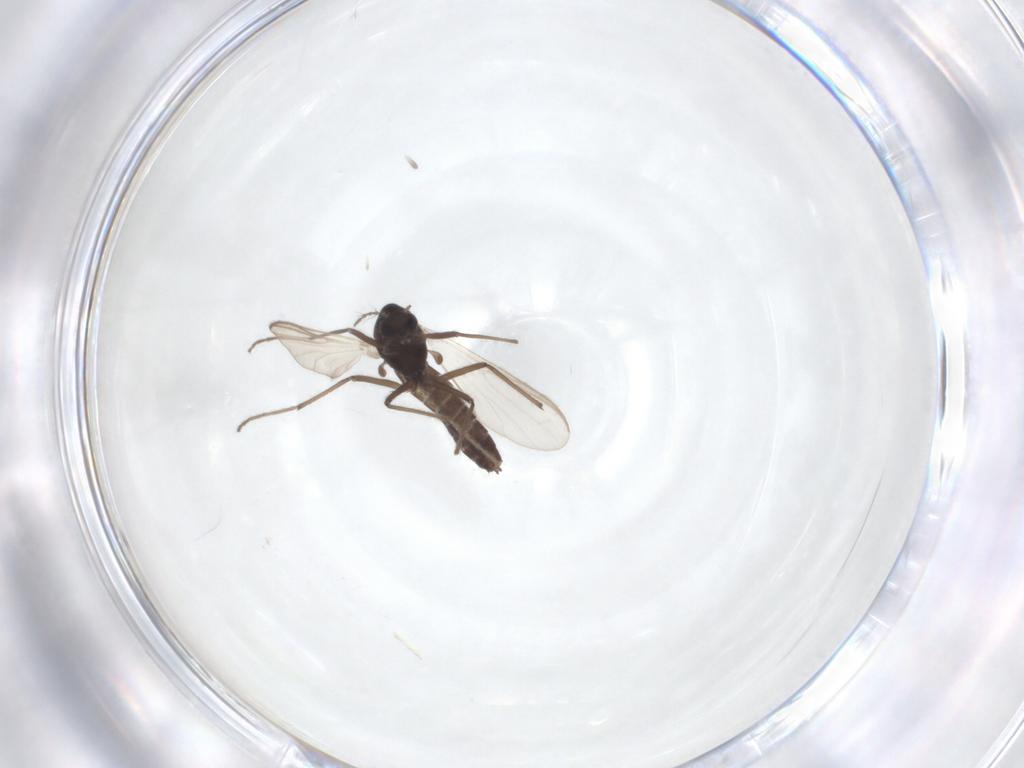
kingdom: Animalia
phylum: Arthropoda
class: Insecta
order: Diptera
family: Chironomidae
